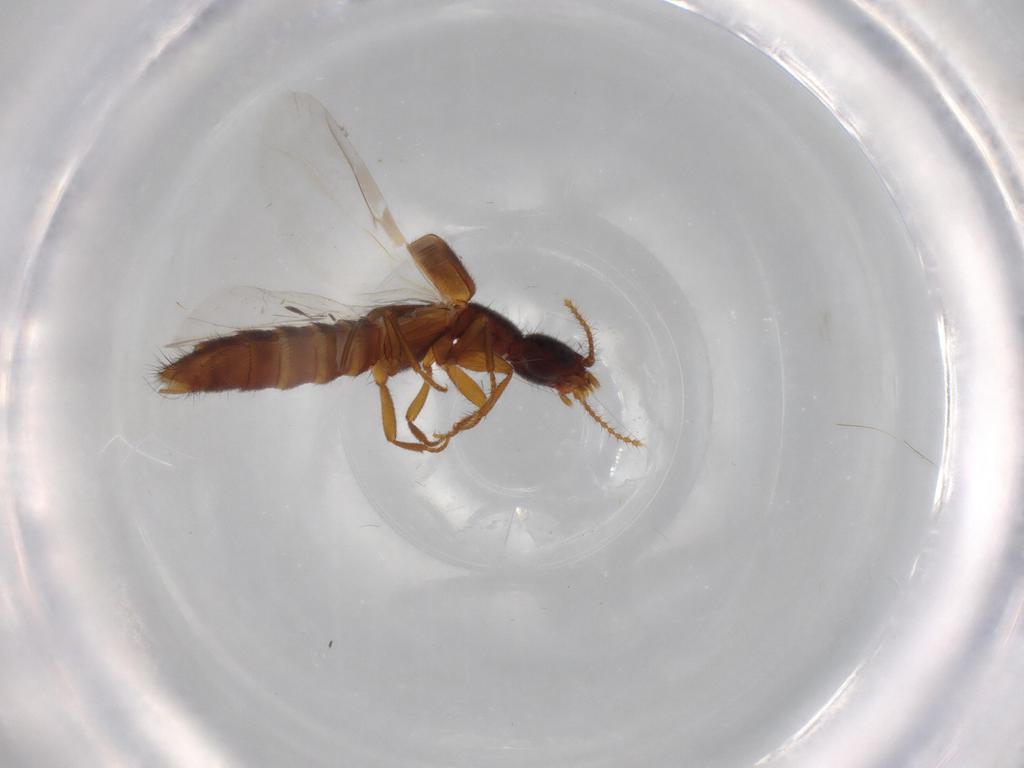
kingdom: Animalia
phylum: Arthropoda
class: Insecta
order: Coleoptera
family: Staphylinidae
